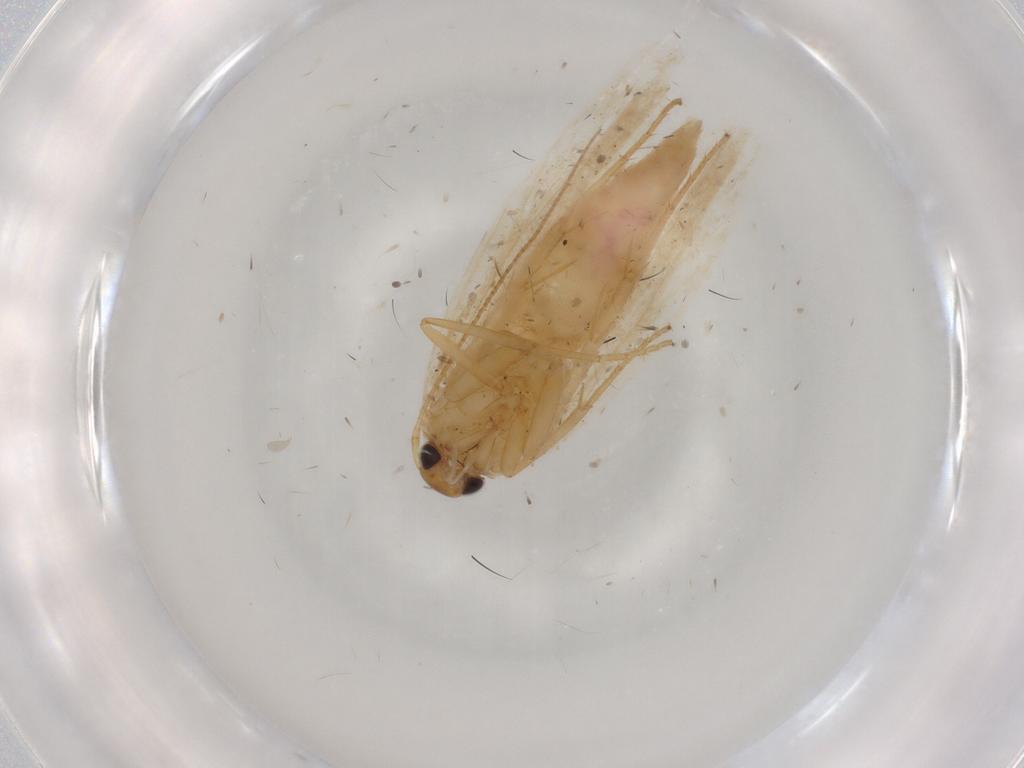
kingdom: Animalia
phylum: Arthropoda
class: Insecta
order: Lepidoptera
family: Gelechiidae
